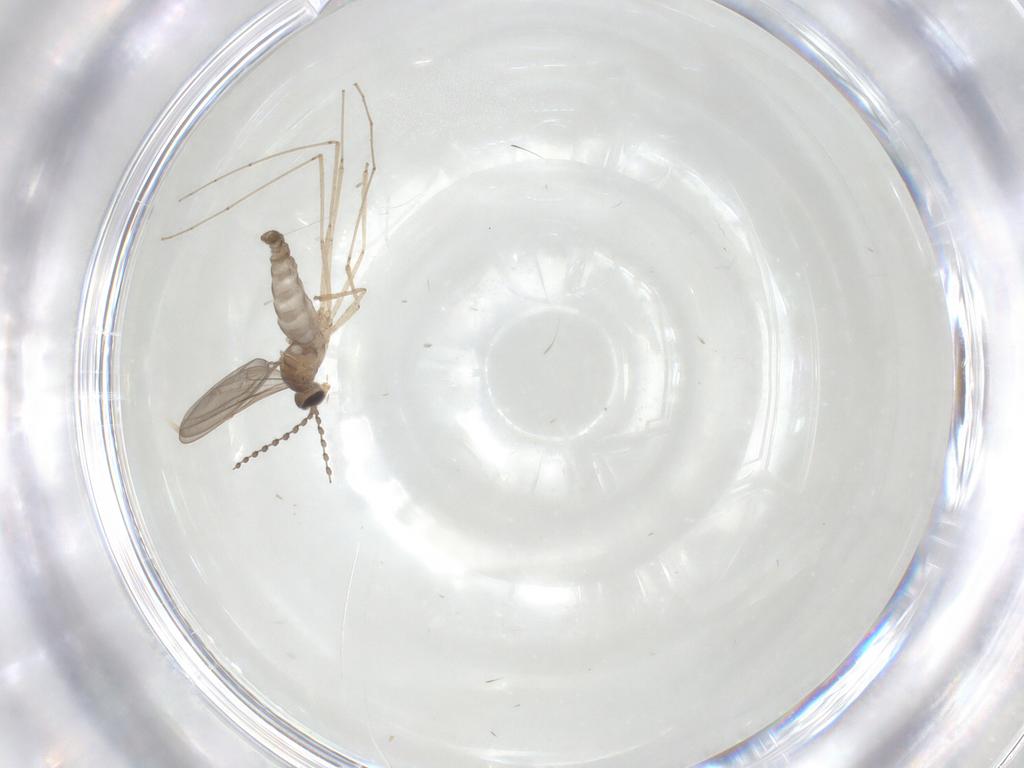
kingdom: Animalia
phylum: Arthropoda
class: Insecta
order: Diptera
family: Cecidomyiidae
